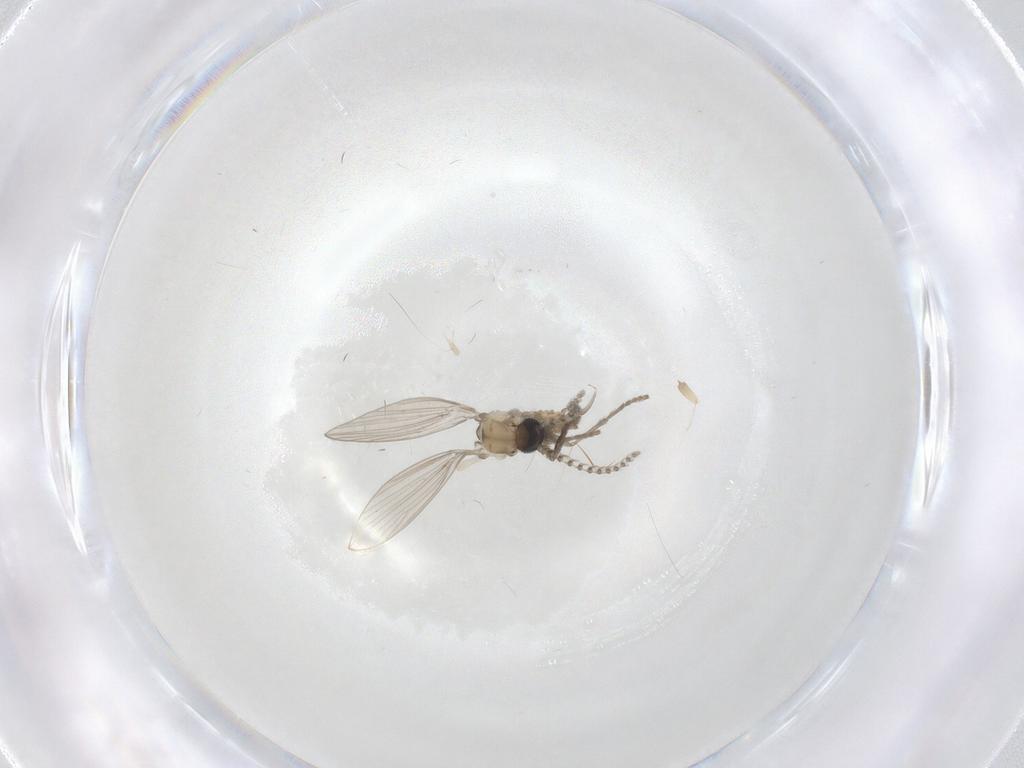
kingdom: Animalia
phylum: Arthropoda
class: Insecta
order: Diptera
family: Psychodidae
